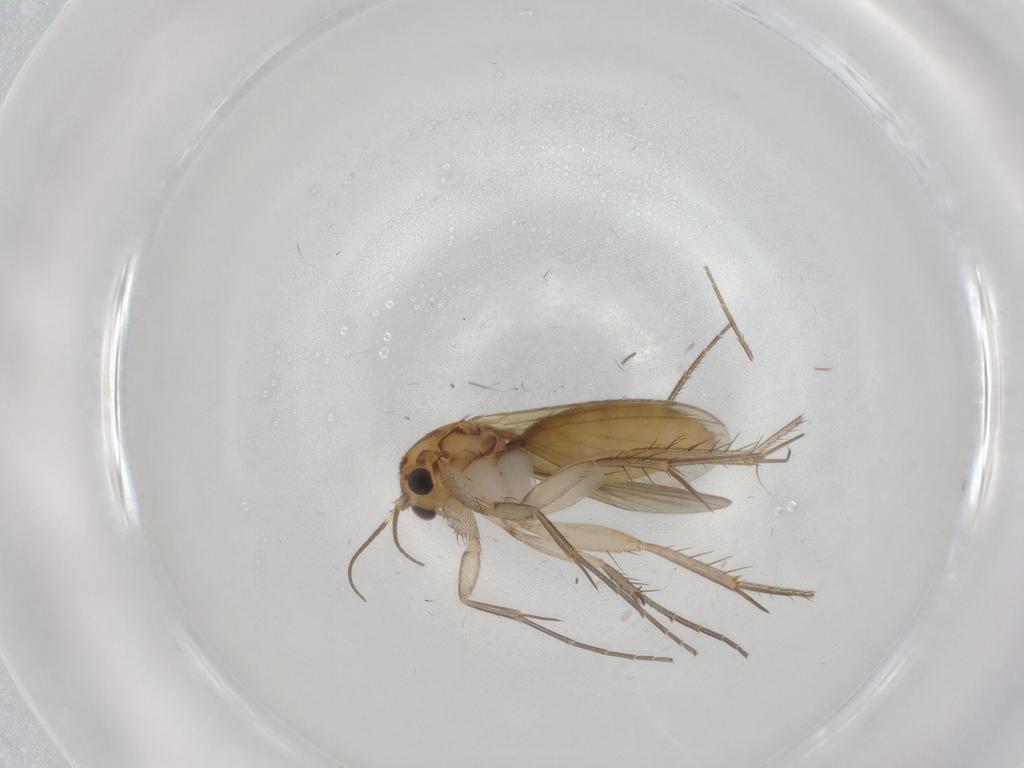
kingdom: Animalia
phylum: Arthropoda
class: Insecta
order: Diptera
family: Mycetophilidae
